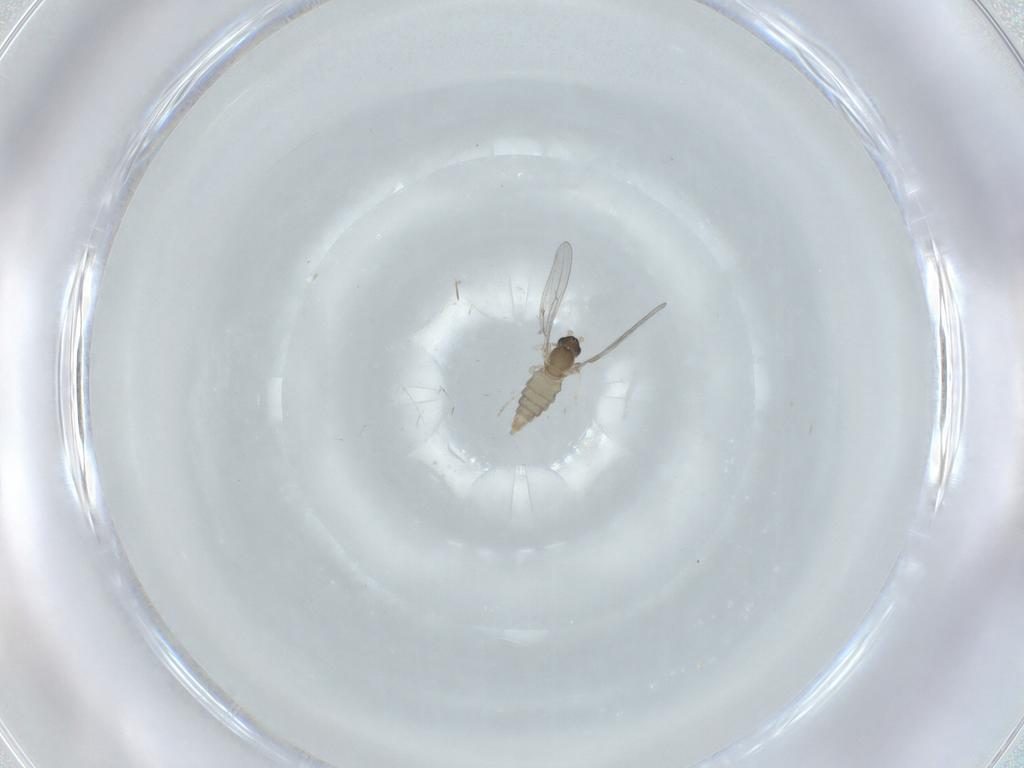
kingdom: Animalia
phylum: Arthropoda
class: Insecta
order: Diptera
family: Cecidomyiidae
